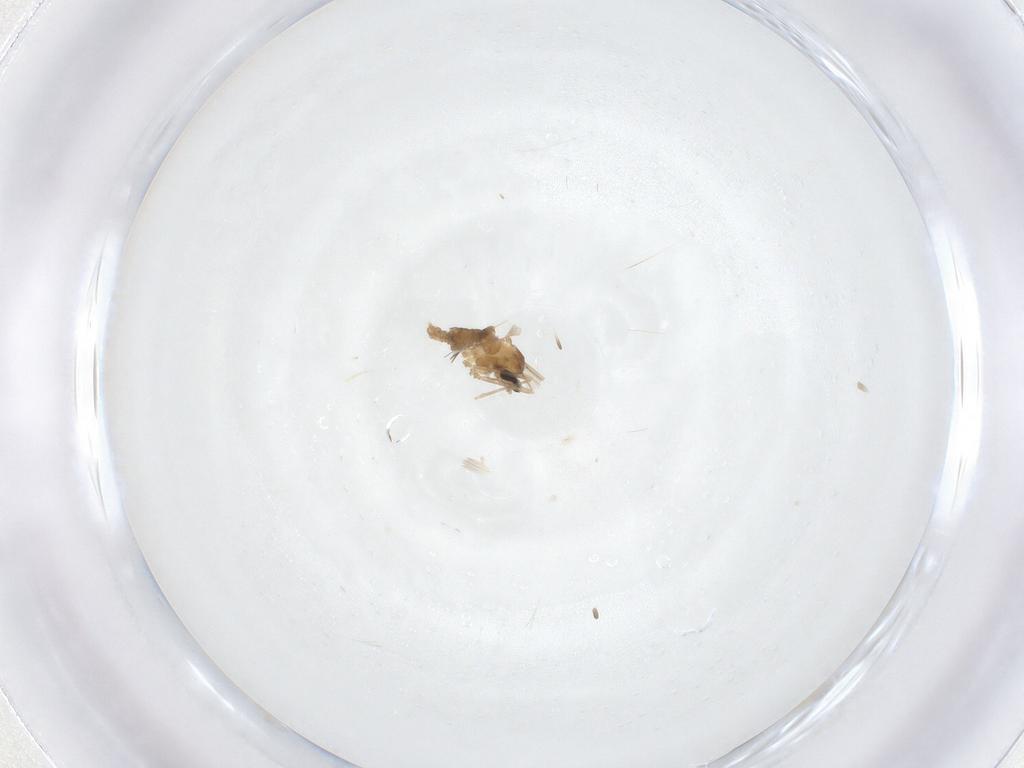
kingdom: Animalia
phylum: Arthropoda
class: Insecta
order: Diptera
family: Cecidomyiidae
